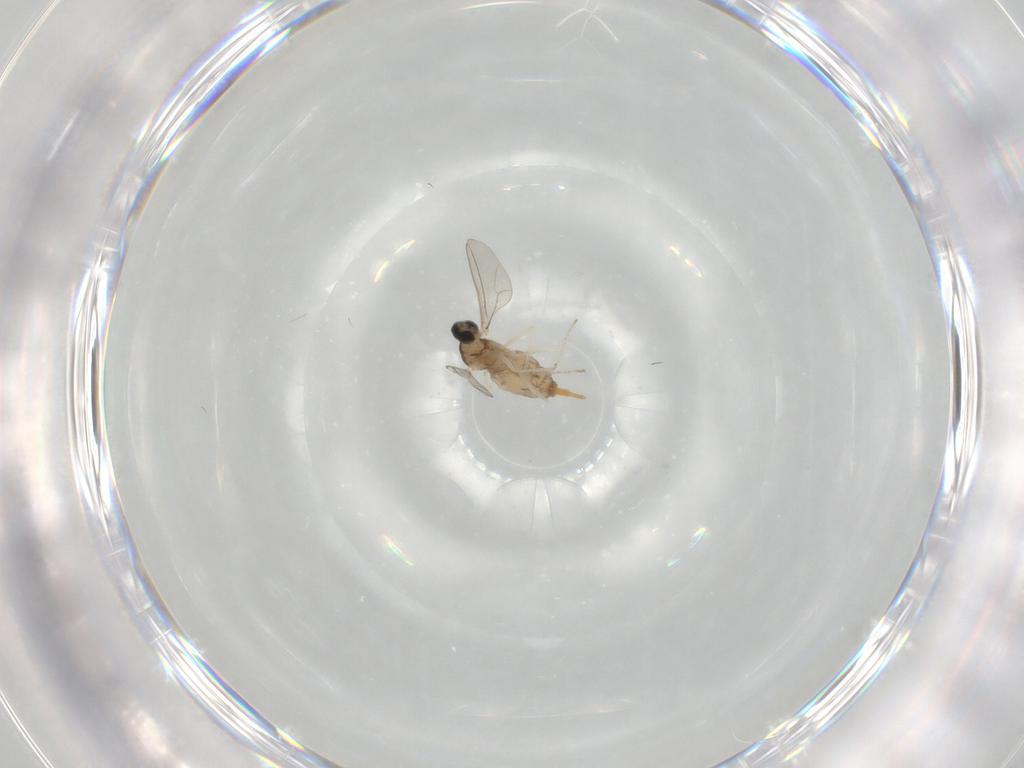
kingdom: Animalia
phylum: Arthropoda
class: Insecta
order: Diptera
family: Cecidomyiidae
